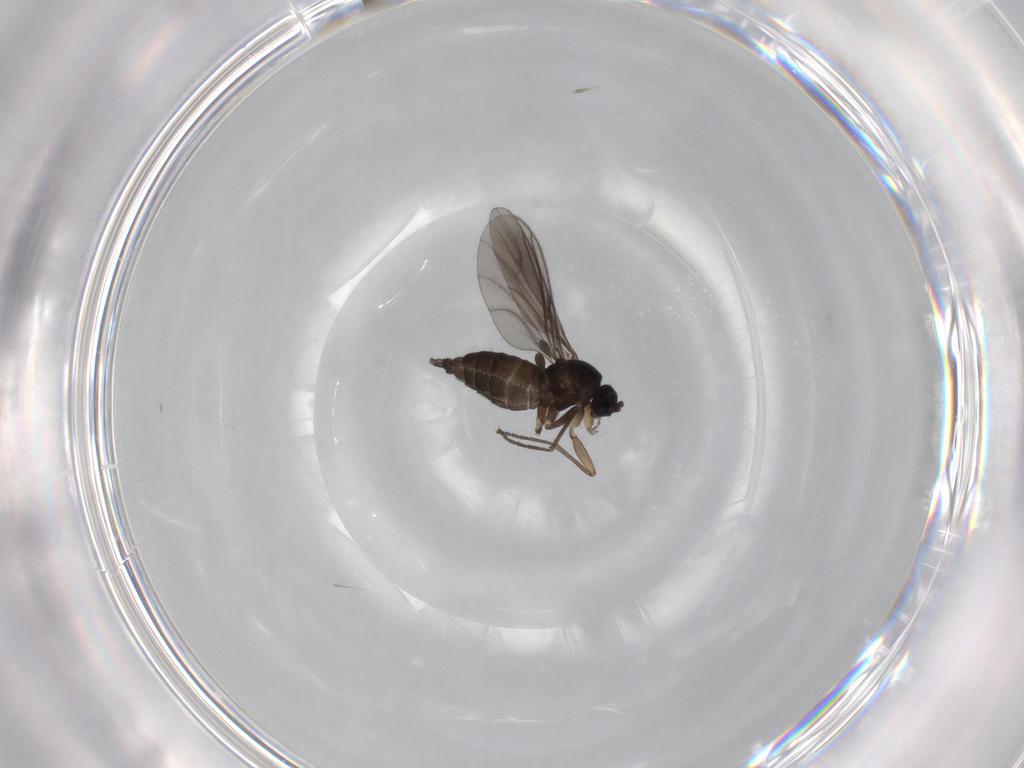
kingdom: Animalia
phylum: Arthropoda
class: Insecta
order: Diptera
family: Sciaridae
